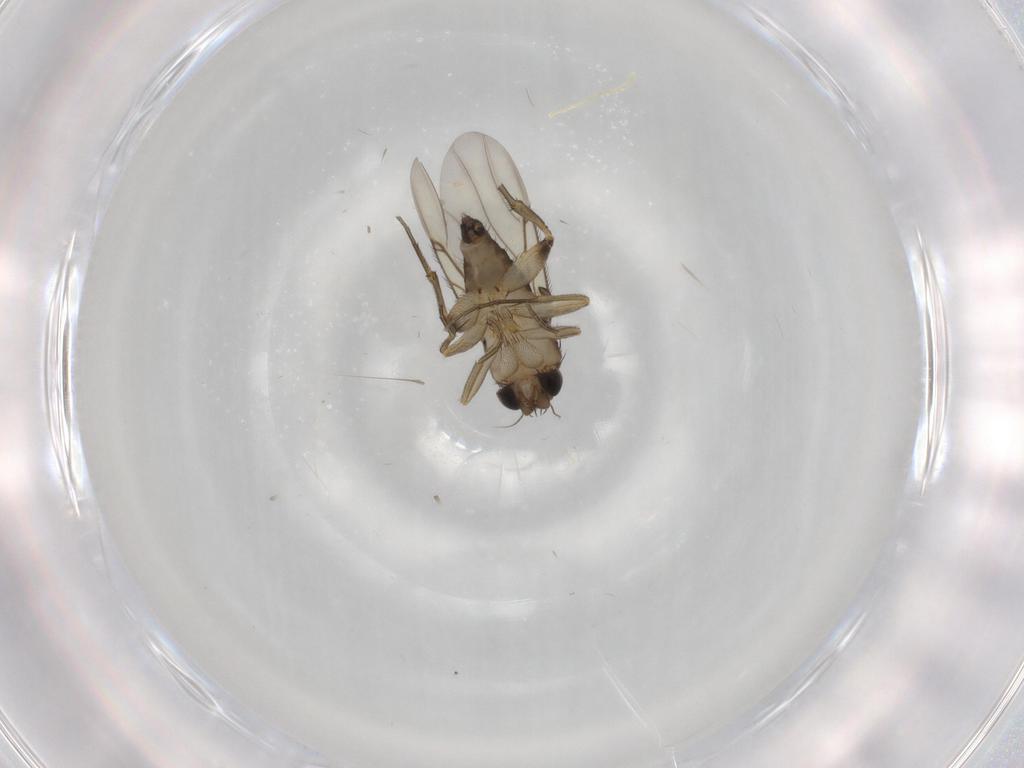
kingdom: Animalia
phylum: Arthropoda
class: Insecta
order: Diptera
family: Phoridae
